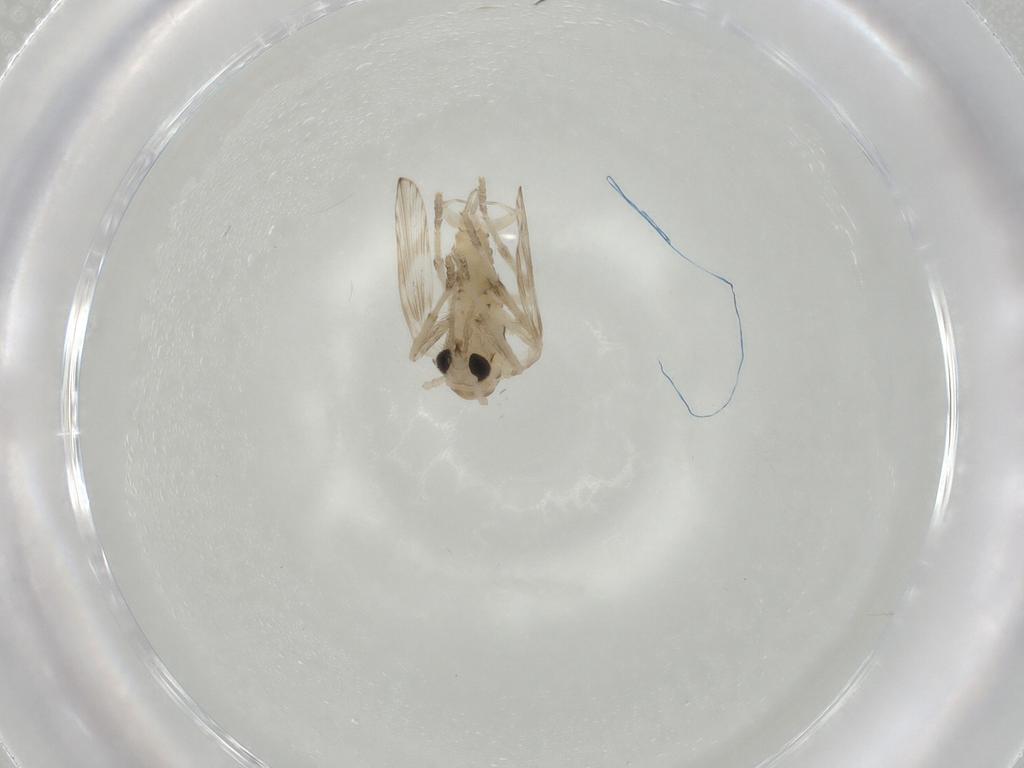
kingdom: Animalia
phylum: Arthropoda
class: Insecta
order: Diptera
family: Psychodidae
